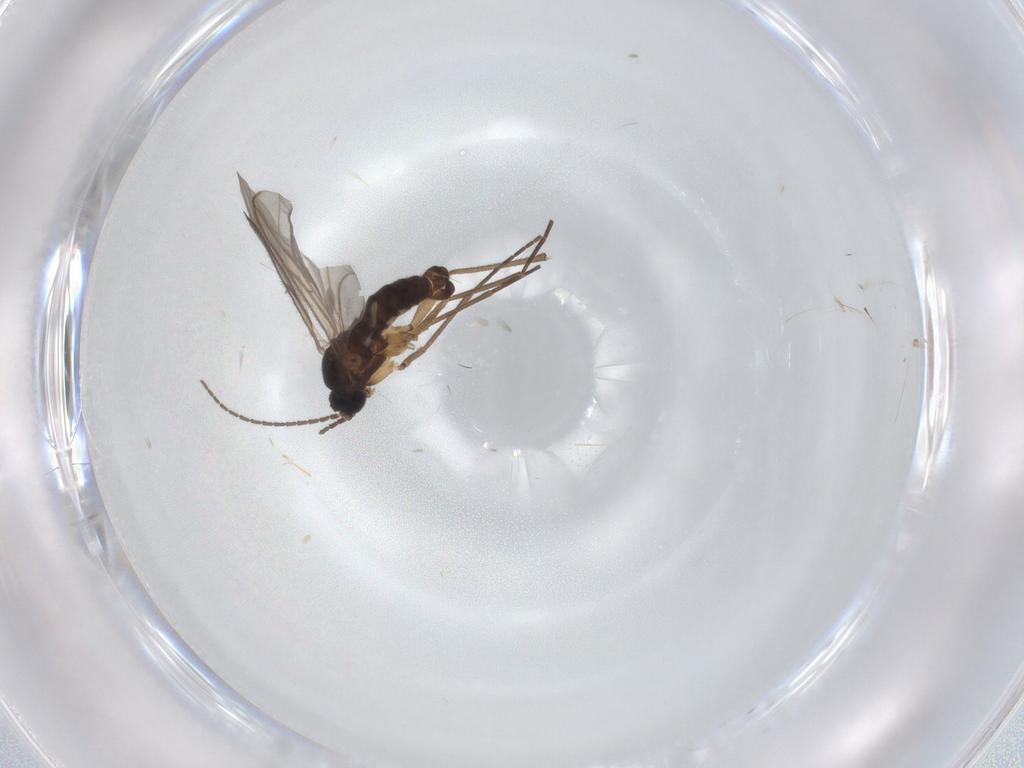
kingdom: Animalia
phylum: Arthropoda
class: Insecta
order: Diptera
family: Sciaridae
